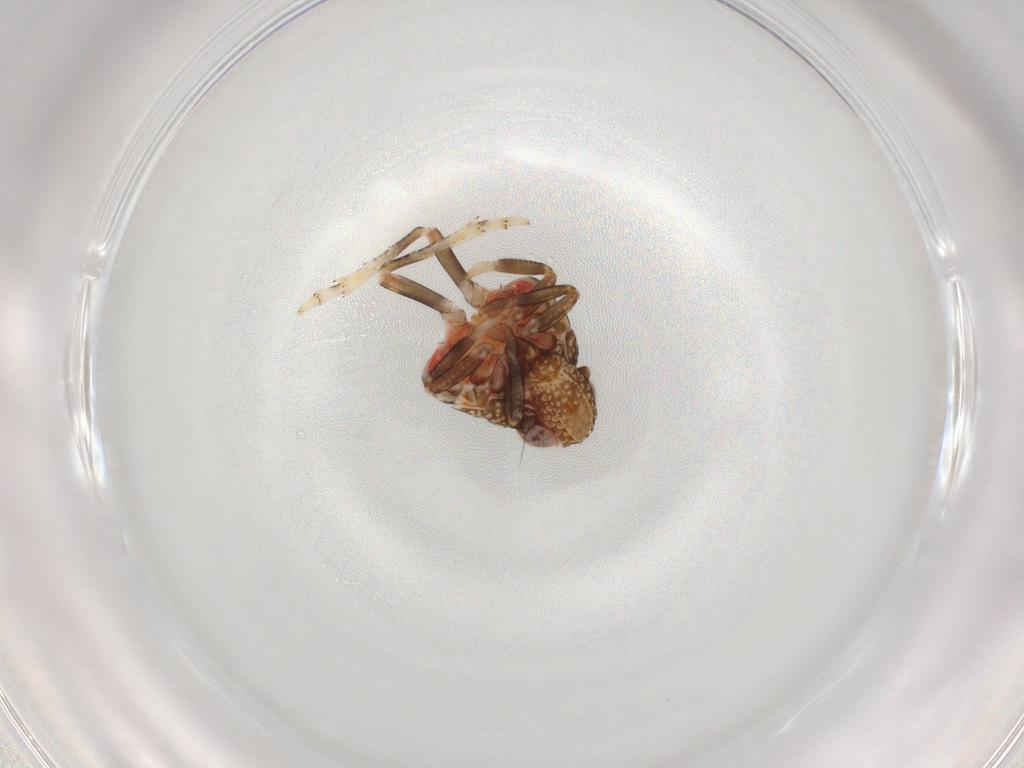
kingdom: Animalia
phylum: Arthropoda
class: Insecta
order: Hemiptera
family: Tropiduchidae
